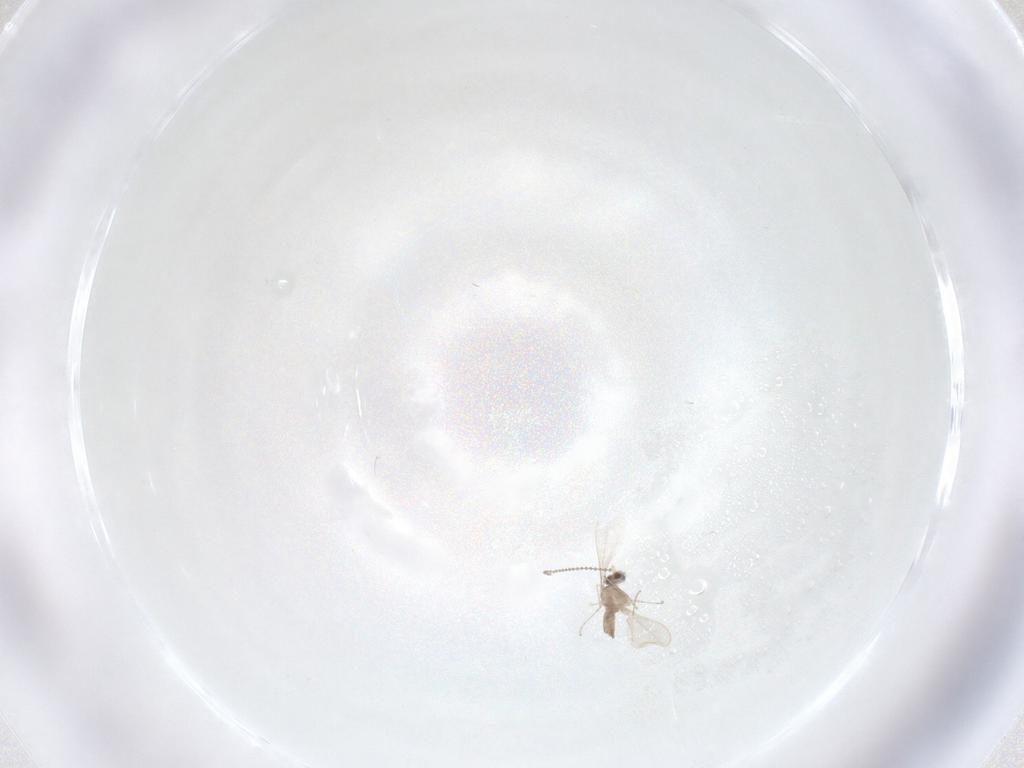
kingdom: Animalia
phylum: Arthropoda
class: Insecta
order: Diptera
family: Cecidomyiidae
